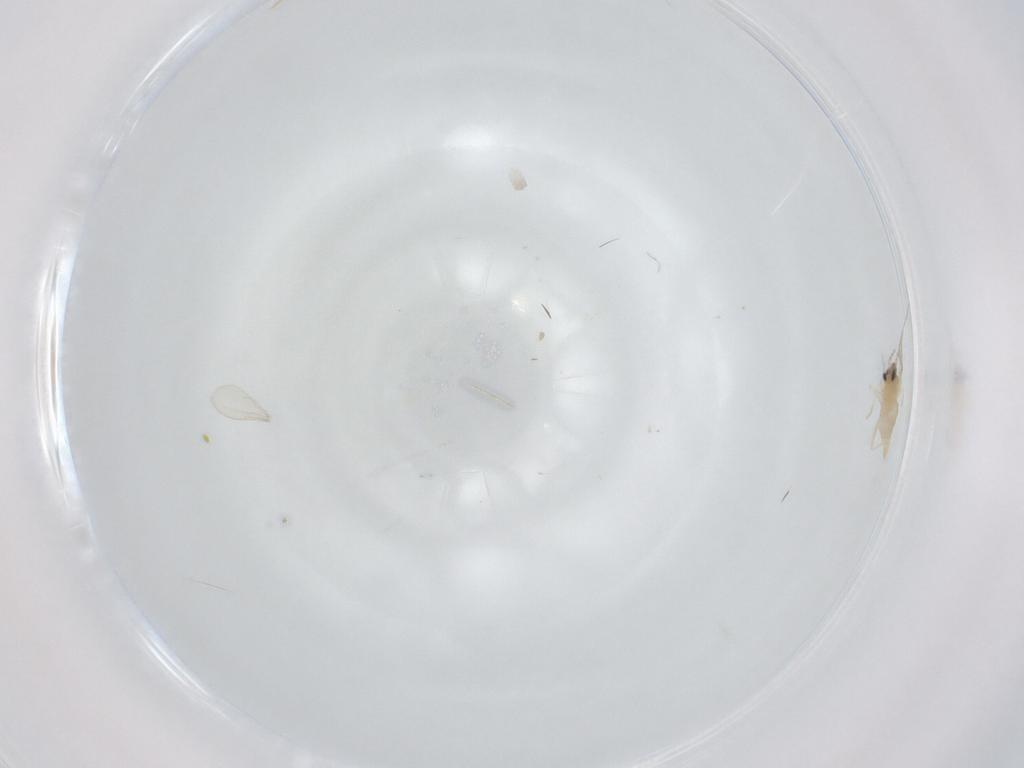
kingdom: Animalia
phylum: Arthropoda
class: Insecta
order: Diptera
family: Cecidomyiidae
